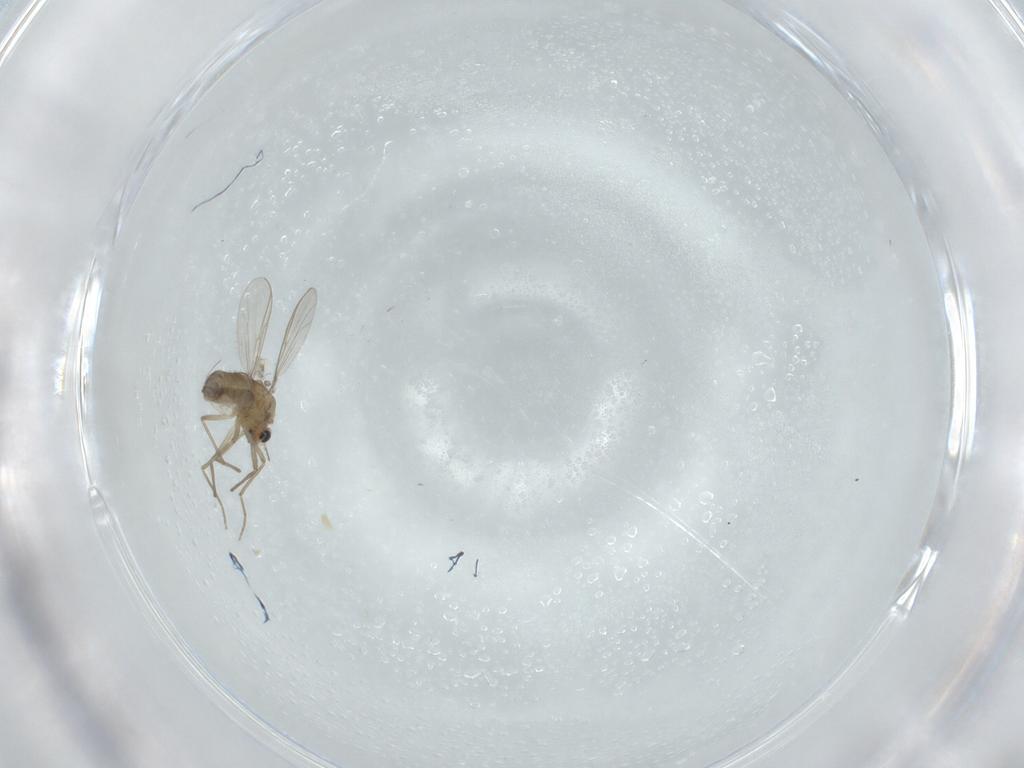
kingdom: Animalia
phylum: Arthropoda
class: Insecta
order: Diptera
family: Chironomidae
